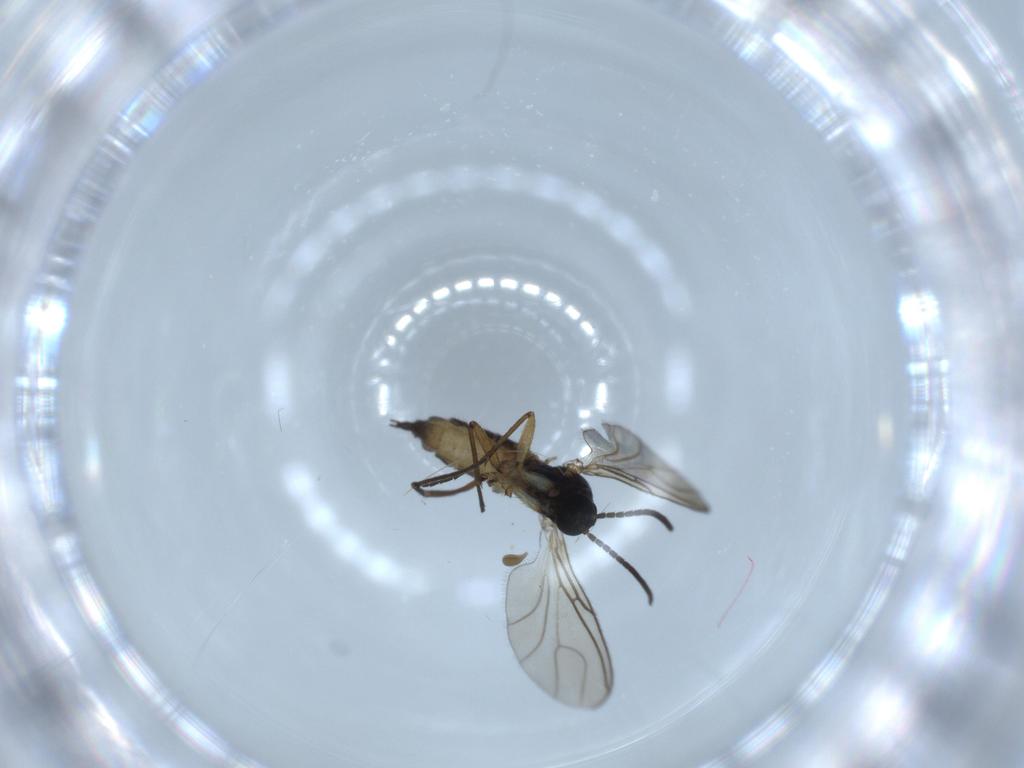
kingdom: Animalia
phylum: Arthropoda
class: Insecta
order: Diptera
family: Sciaridae
